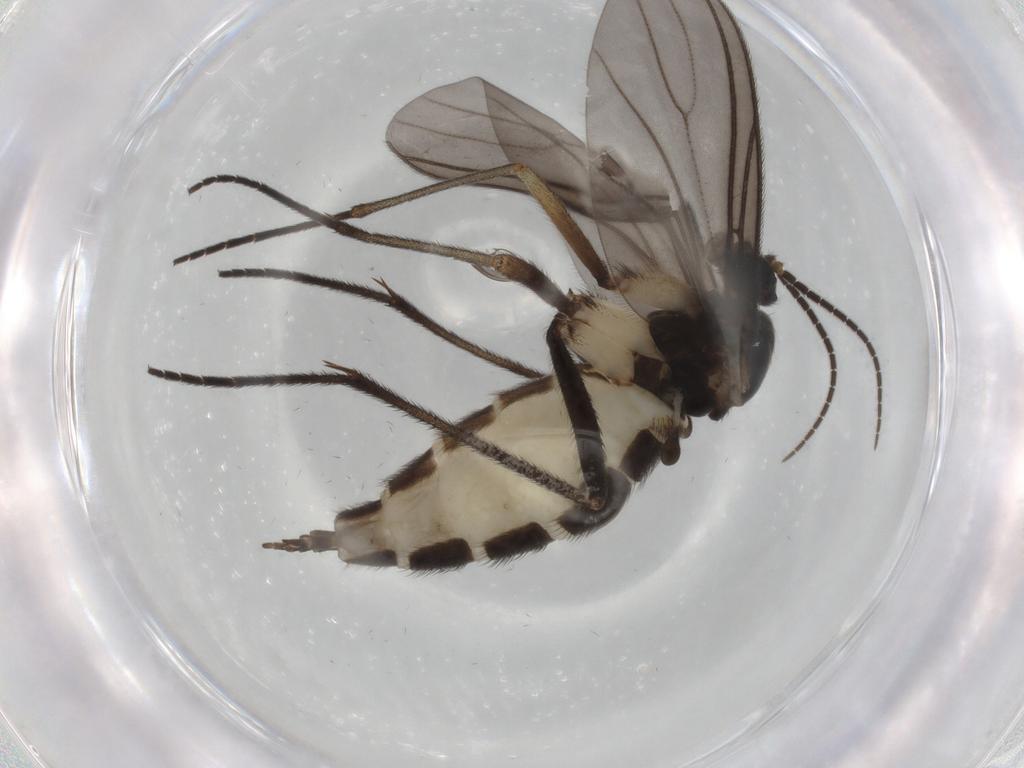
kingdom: Animalia
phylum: Arthropoda
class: Insecta
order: Diptera
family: Sciaridae
